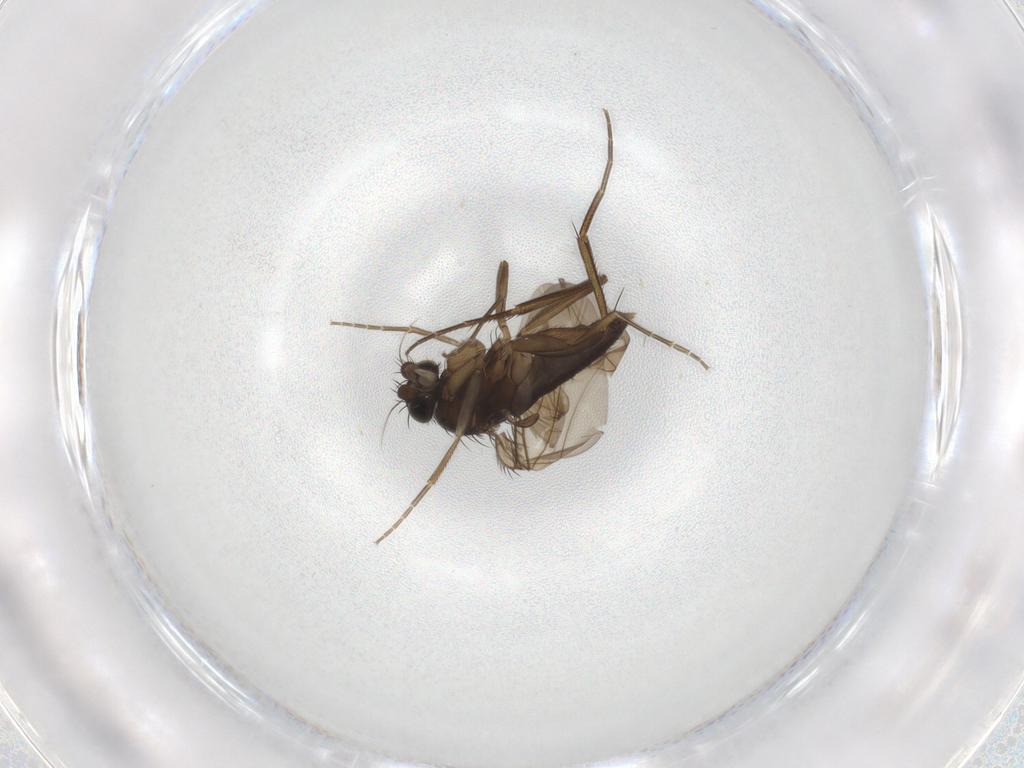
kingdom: Animalia
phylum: Arthropoda
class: Insecta
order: Diptera
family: Phoridae
